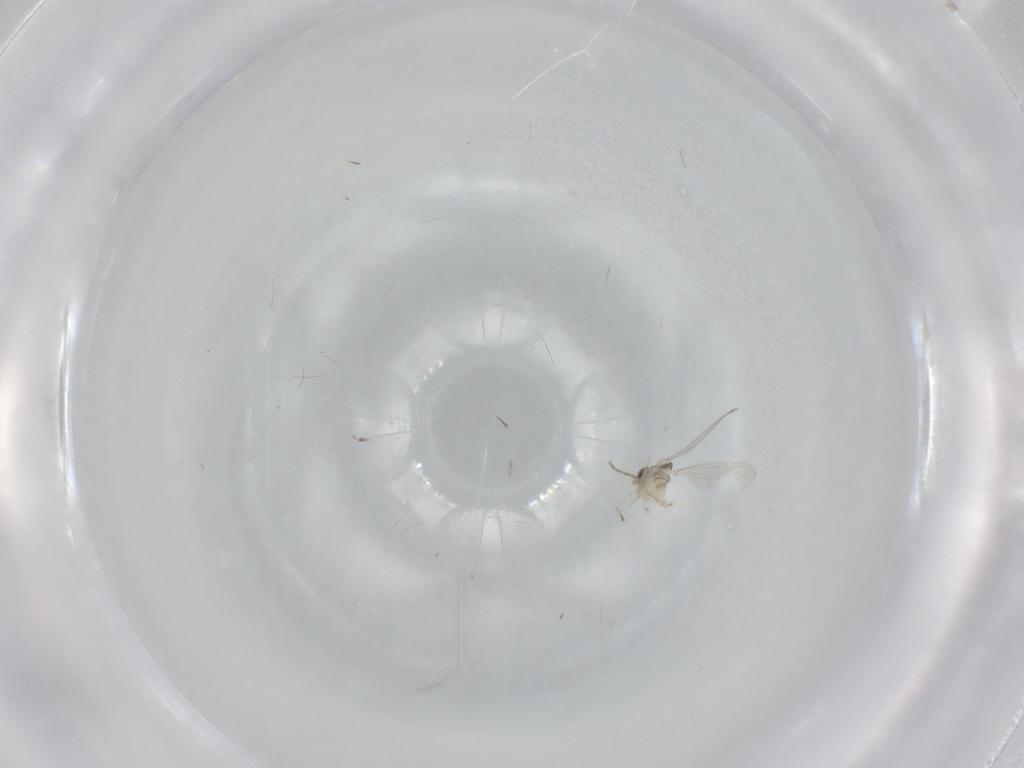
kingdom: Animalia
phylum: Arthropoda
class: Insecta
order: Diptera
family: Cecidomyiidae
